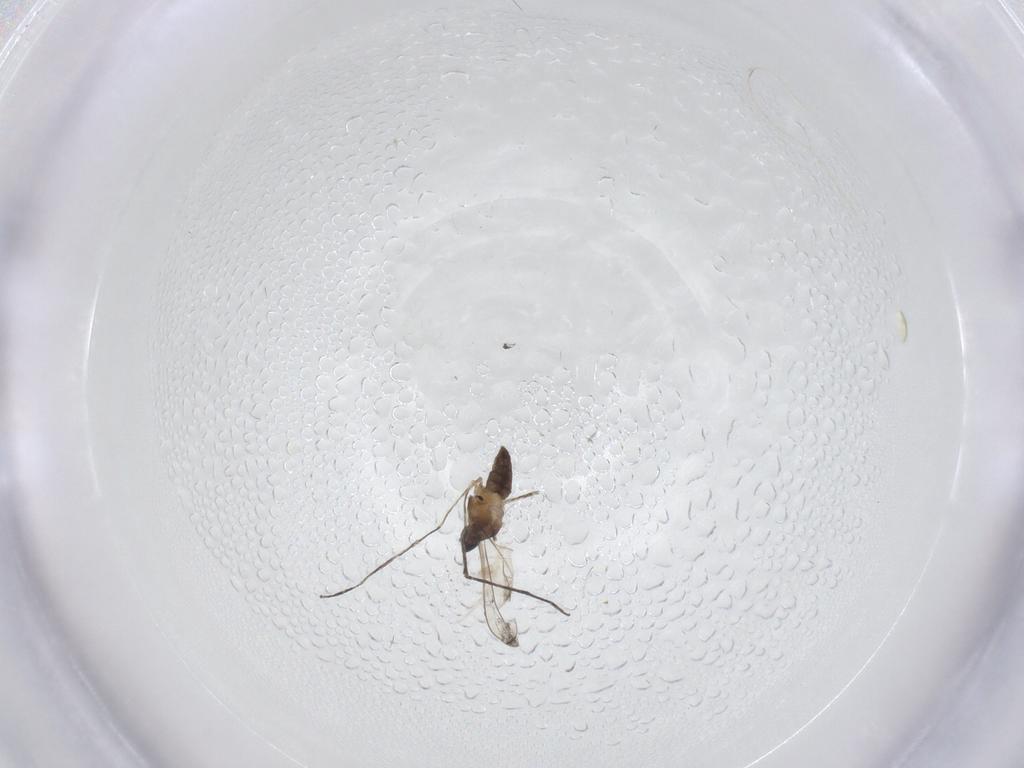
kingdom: Animalia
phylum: Arthropoda
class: Insecta
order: Diptera
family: Cecidomyiidae
